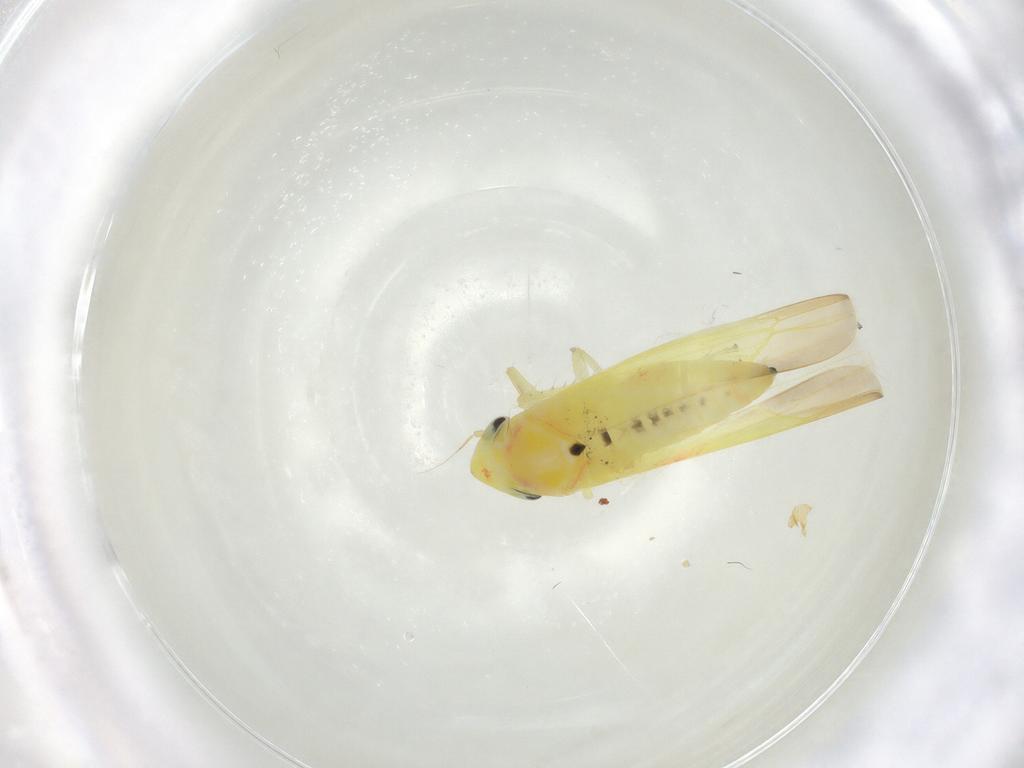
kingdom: Animalia
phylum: Arthropoda
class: Insecta
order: Hemiptera
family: Cicadellidae
